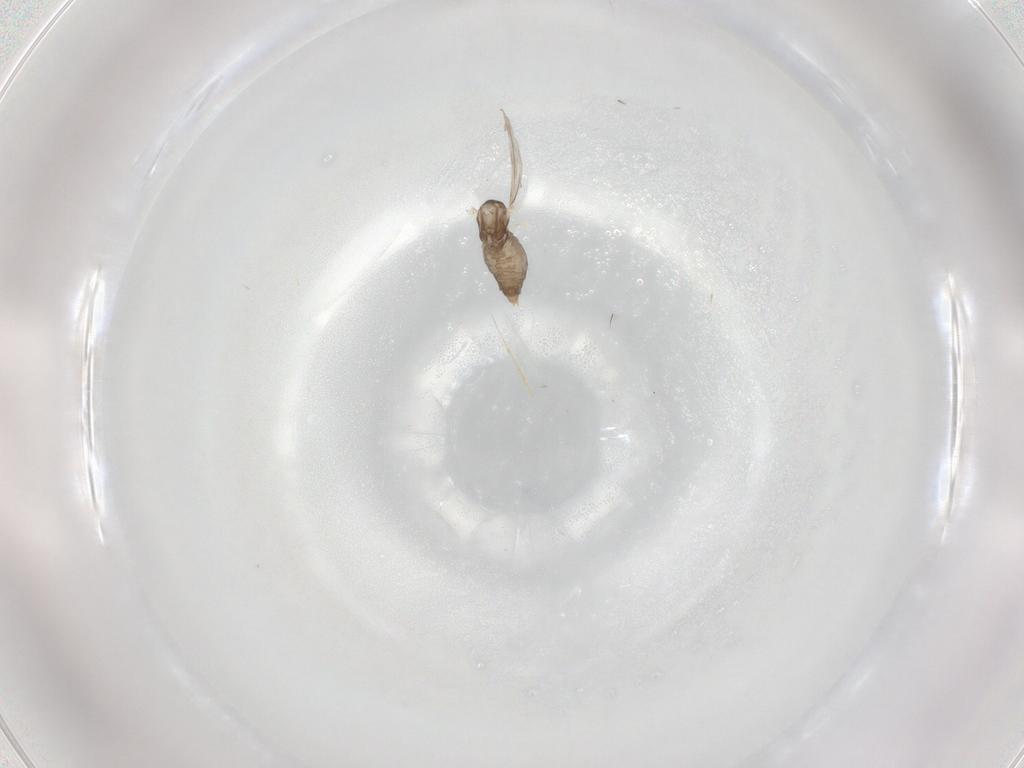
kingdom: Animalia
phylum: Arthropoda
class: Insecta
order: Diptera
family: Cecidomyiidae
